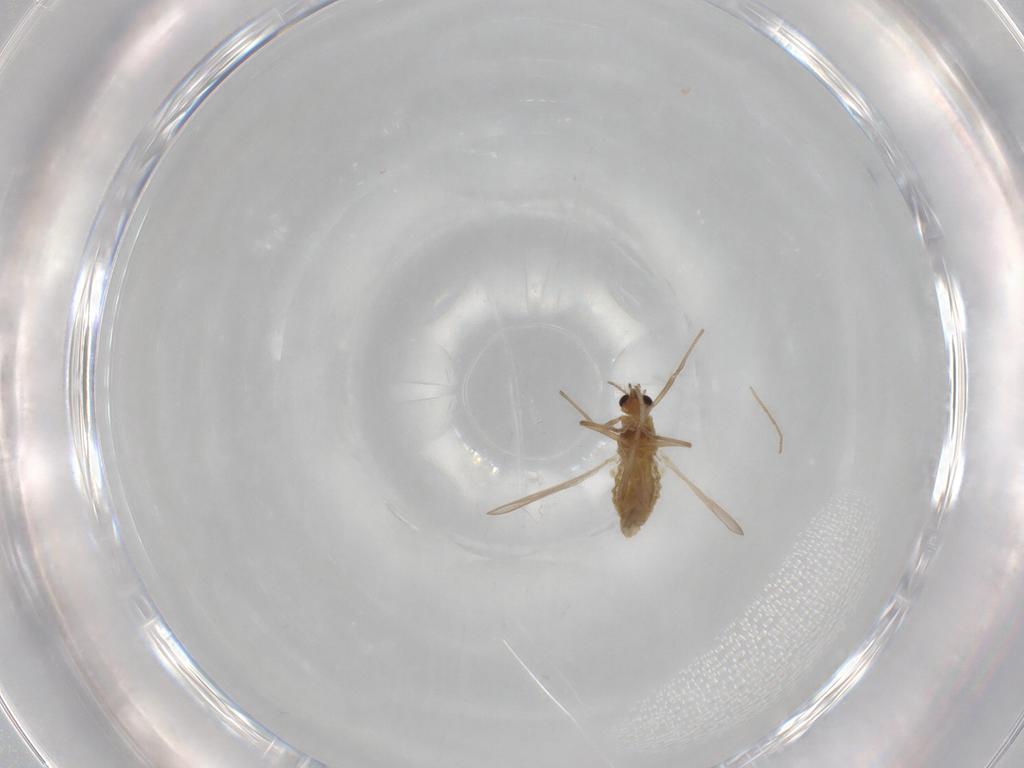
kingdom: Animalia
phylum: Arthropoda
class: Insecta
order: Diptera
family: Chironomidae
